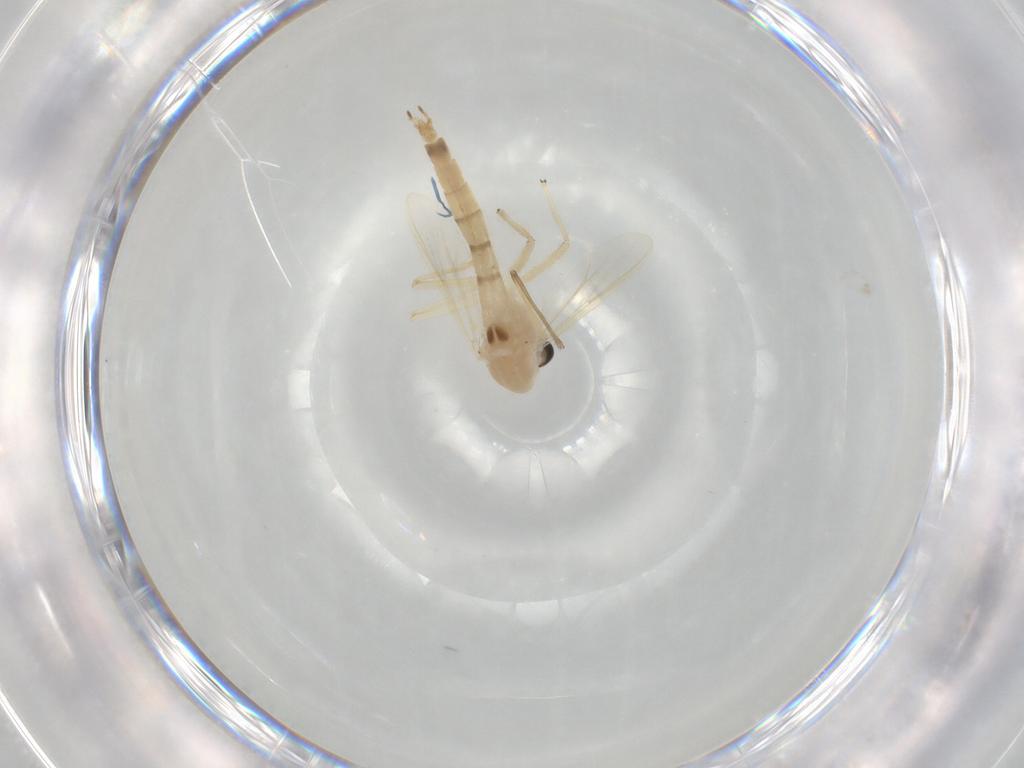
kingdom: Animalia
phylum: Arthropoda
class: Insecta
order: Diptera
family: Chironomidae
